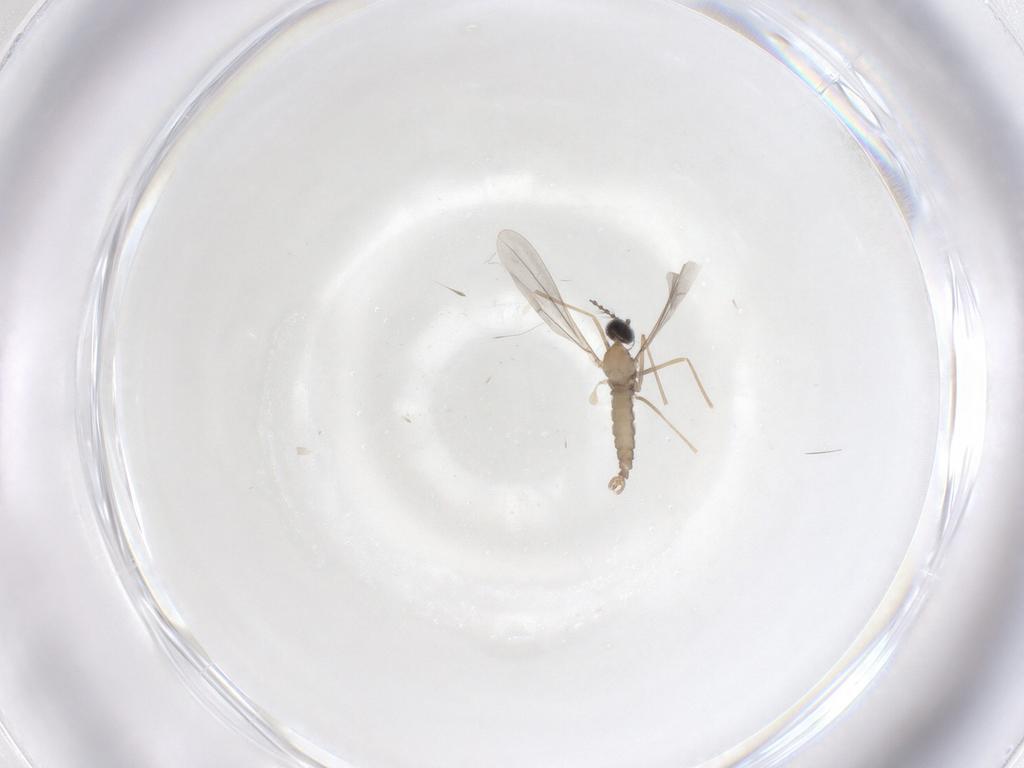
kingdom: Animalia
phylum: Arthropoda
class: Insecta
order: Diptera
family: Cecidomyiidae
